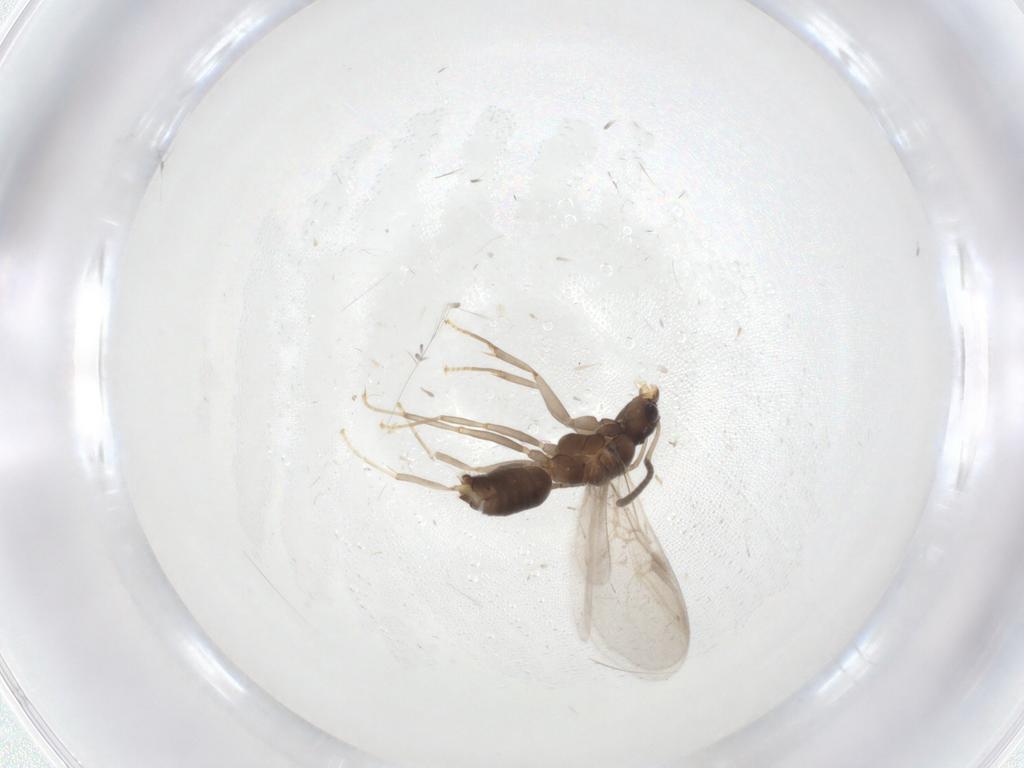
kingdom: Animalia
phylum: Arthropoda
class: Insecta
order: Hymenoptera
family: Formicidae
